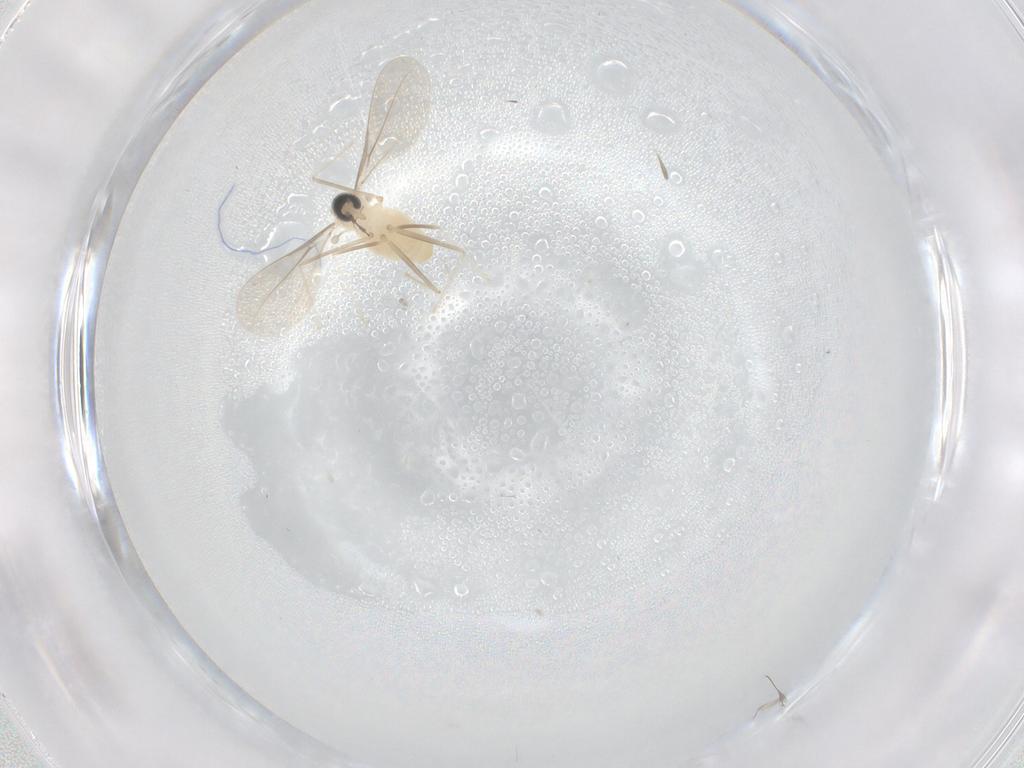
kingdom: Animalia
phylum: Arthropoda
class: Insecta
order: Diptera
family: Cecidomyiidae
